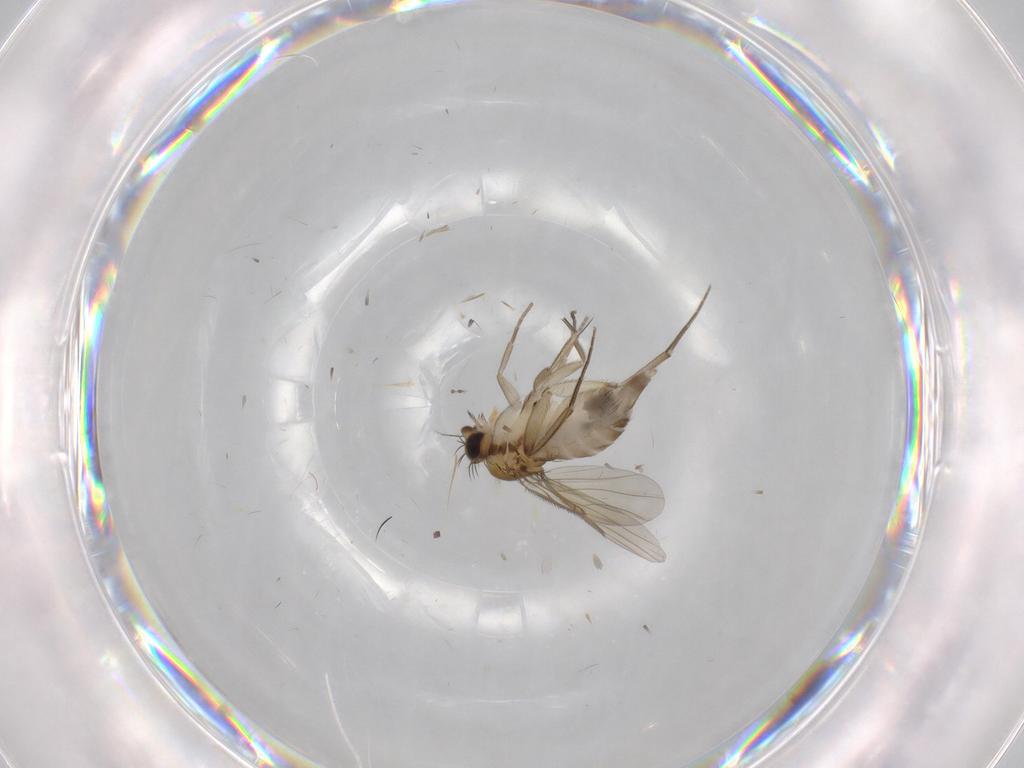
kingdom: Animalia
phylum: Arthropoda
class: Insecta
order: Diptera
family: Phoridae
